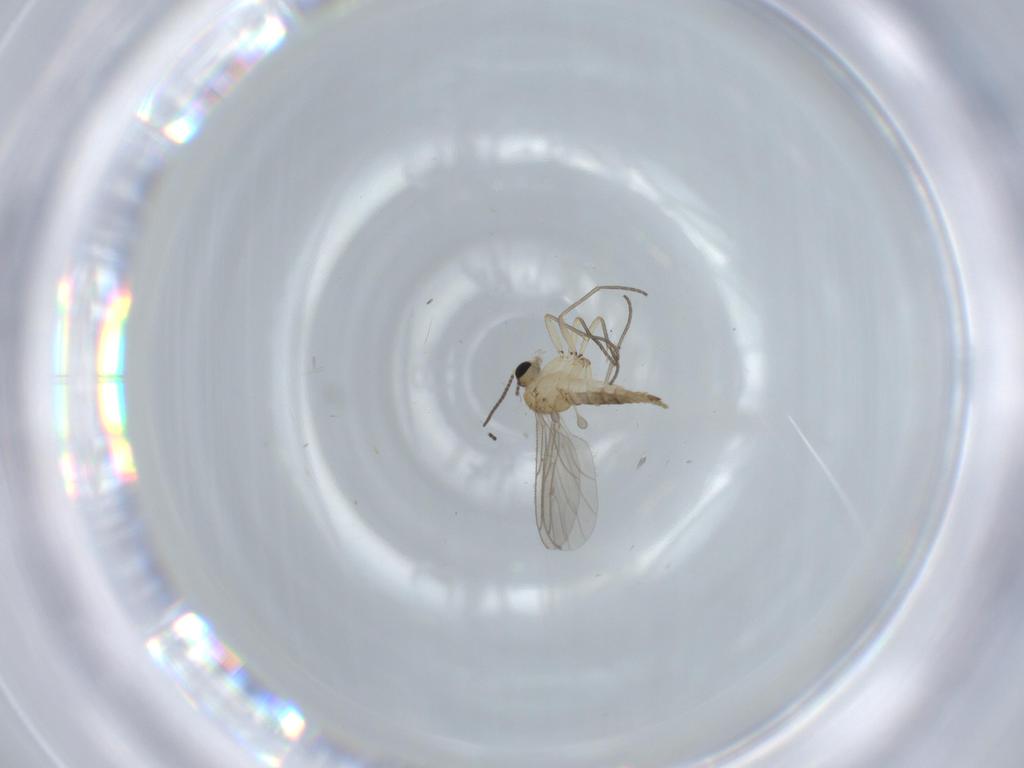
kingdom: Animalia
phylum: Arthropoda
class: Insecta
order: Diptera
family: Sciaridae
